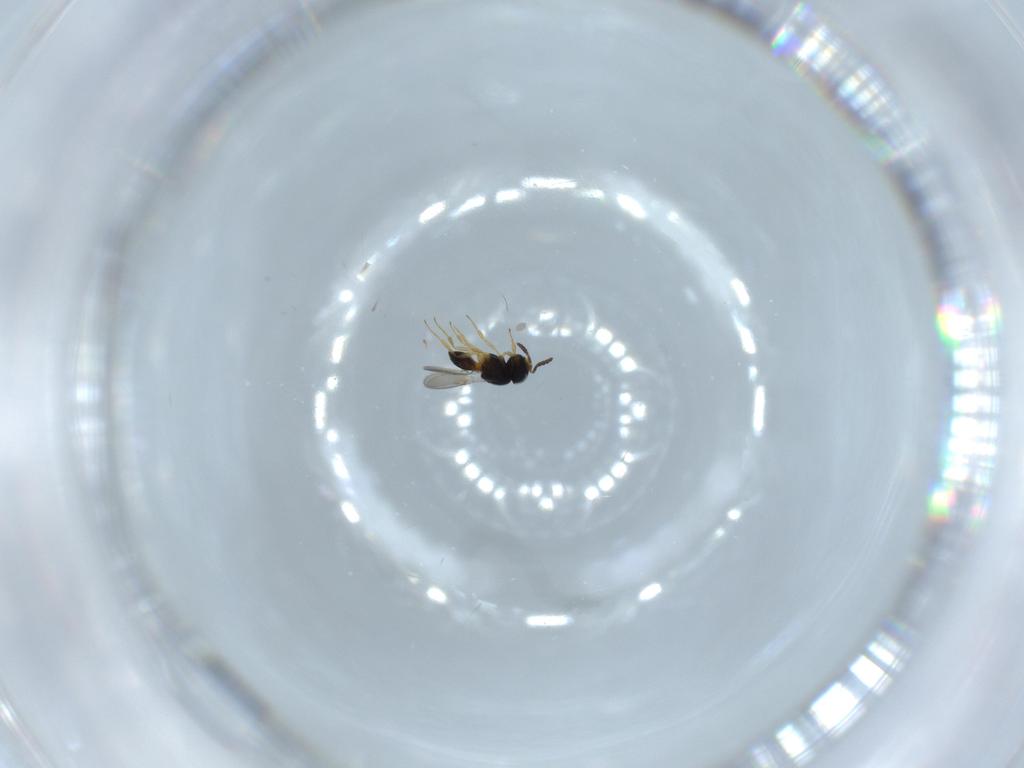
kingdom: Animalia
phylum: Arthropoda
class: Insecta
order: Hymenoptera
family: Scelionidae
